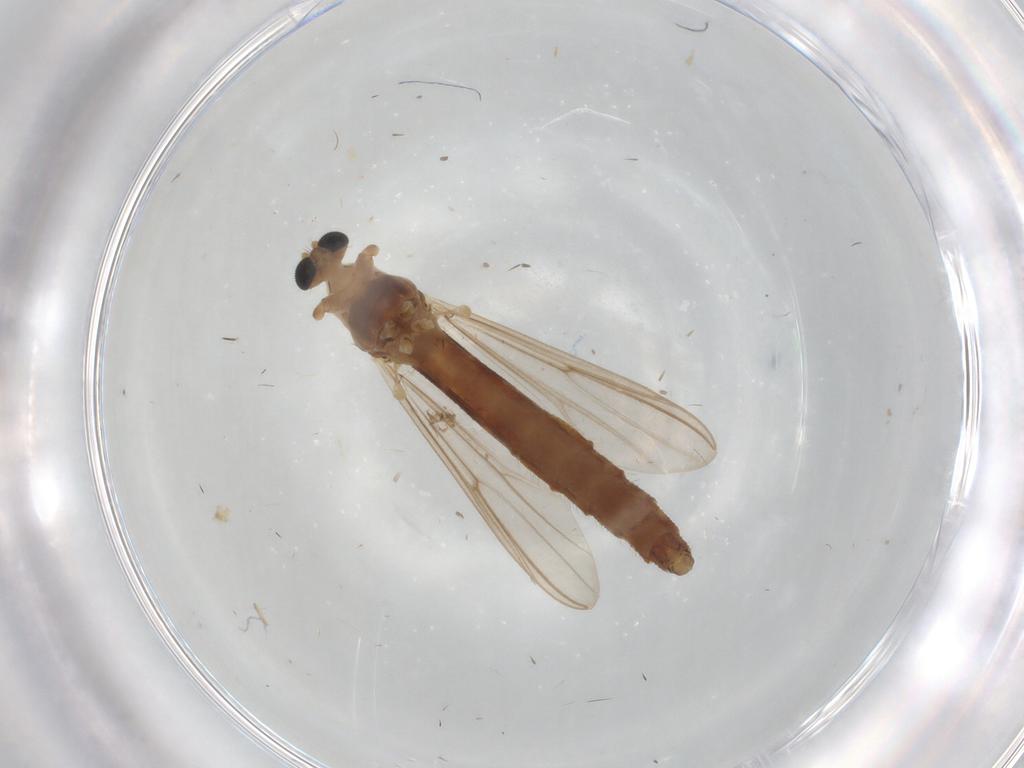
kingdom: Animalia
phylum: Arthropoda
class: Insecta
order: Diptera
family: Chironomidae
